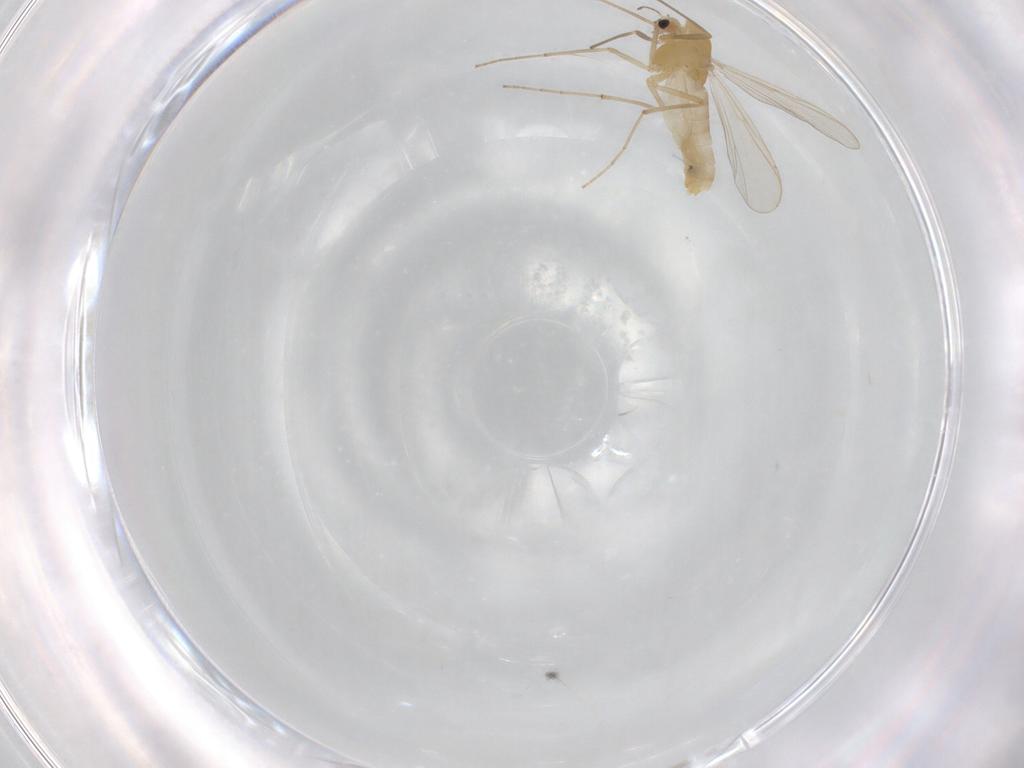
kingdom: Animalia
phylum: Arthropoda
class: Insecta
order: Diptera
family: Chironomidae
